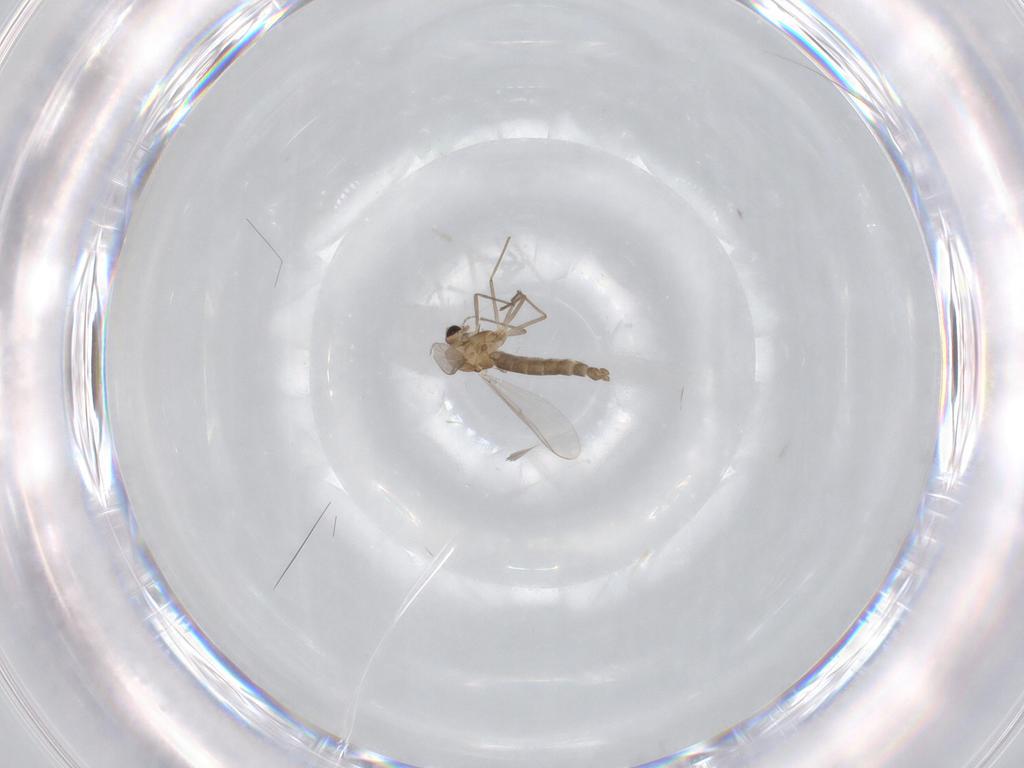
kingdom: Animalia
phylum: Arthropoda
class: Insecta
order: Diptera
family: Chironomidae
